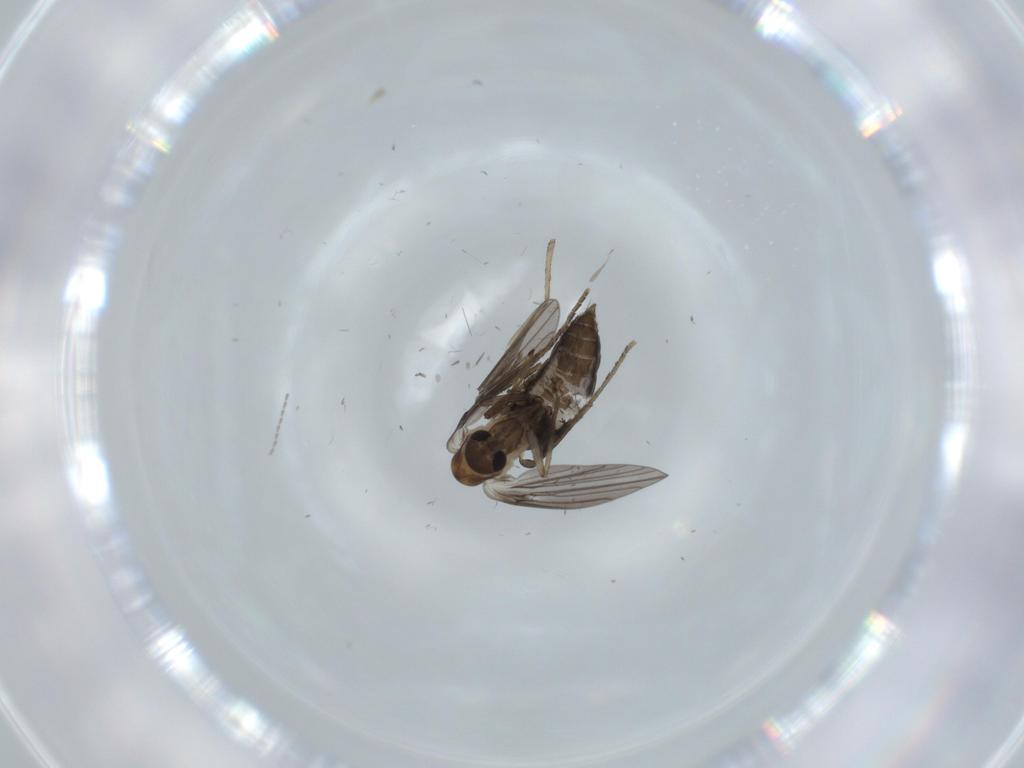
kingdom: Animalia
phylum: Arthropoda
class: Insecta
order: Diptera
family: Psychodidae
